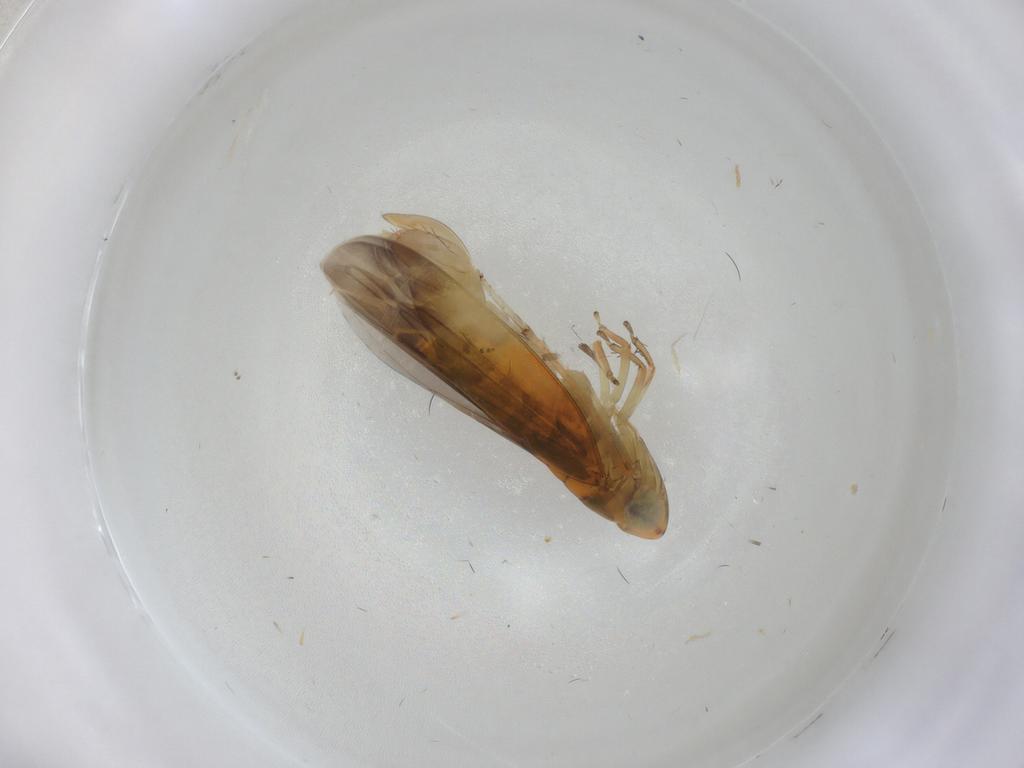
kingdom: Animalia
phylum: Arthropoda
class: Insecta
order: Hemiptera
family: Cicadellidae
